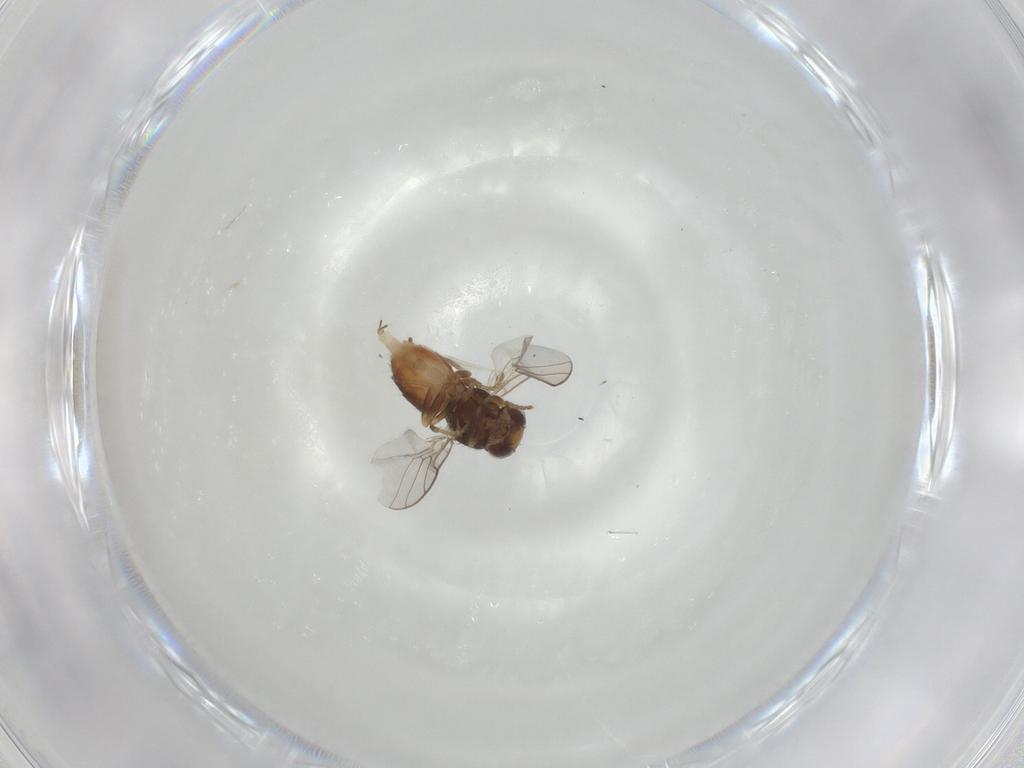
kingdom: Animalia
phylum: Arthropoda
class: Insecta
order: Diptera
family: Chloropidae
